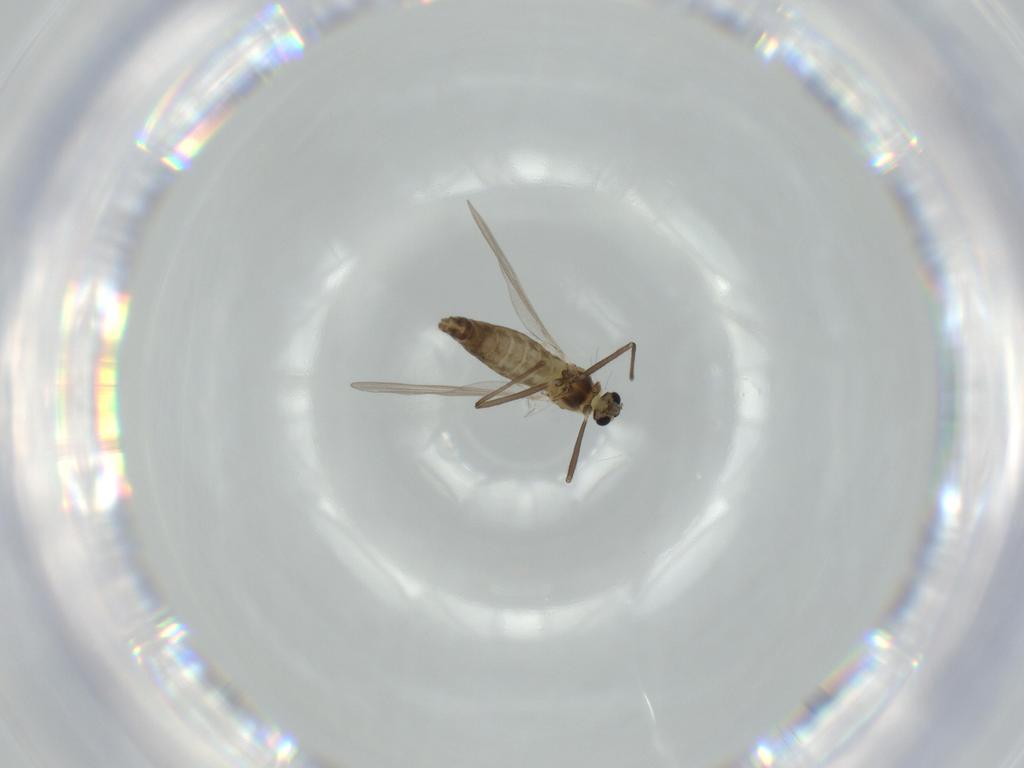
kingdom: Animalia
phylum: Arthropoda
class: Insecta
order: Diptera
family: Chironomidae
